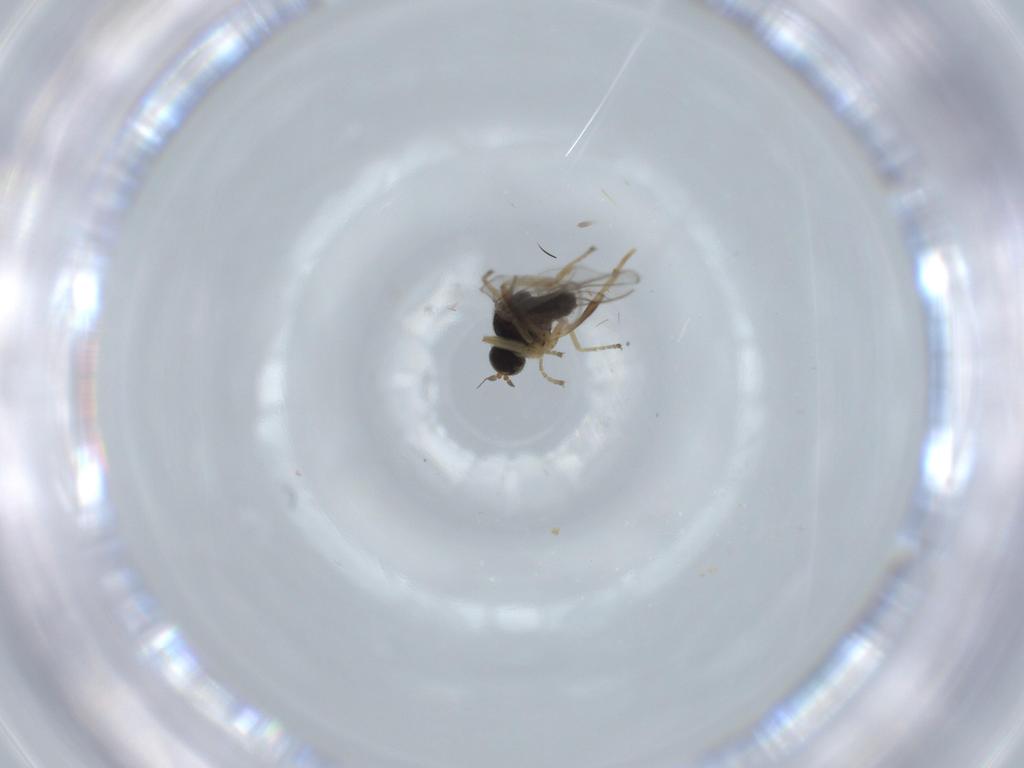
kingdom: Animalia
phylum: Arthropoda
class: Insecta
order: Diptera
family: Hybotidae
